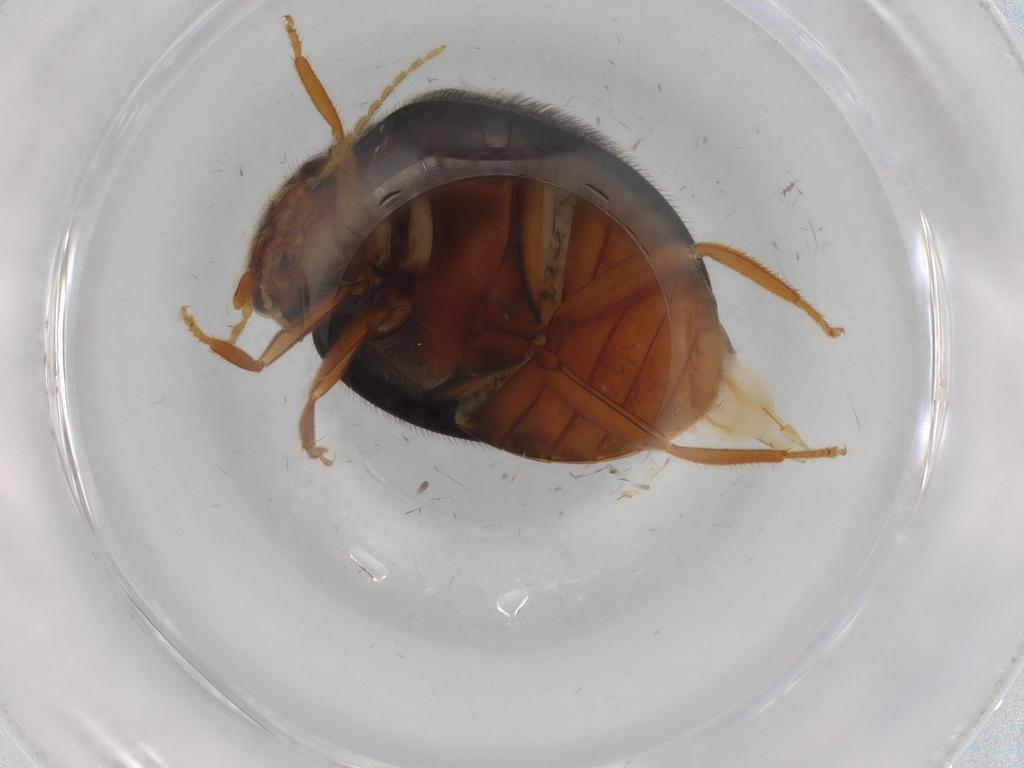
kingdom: Animalia
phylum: Arthropoda
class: Insecta
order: Coleoptera
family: Scirtidae
